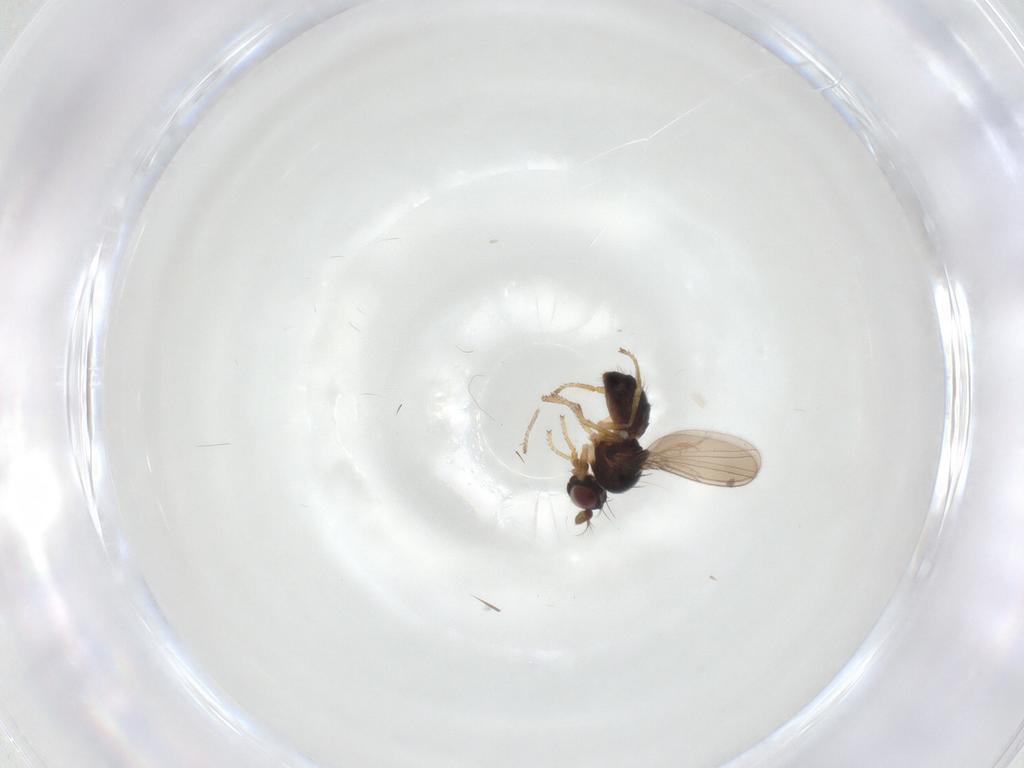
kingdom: Animalia
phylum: Arthropoda
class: Insecta
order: Diptera
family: Ephydridae
